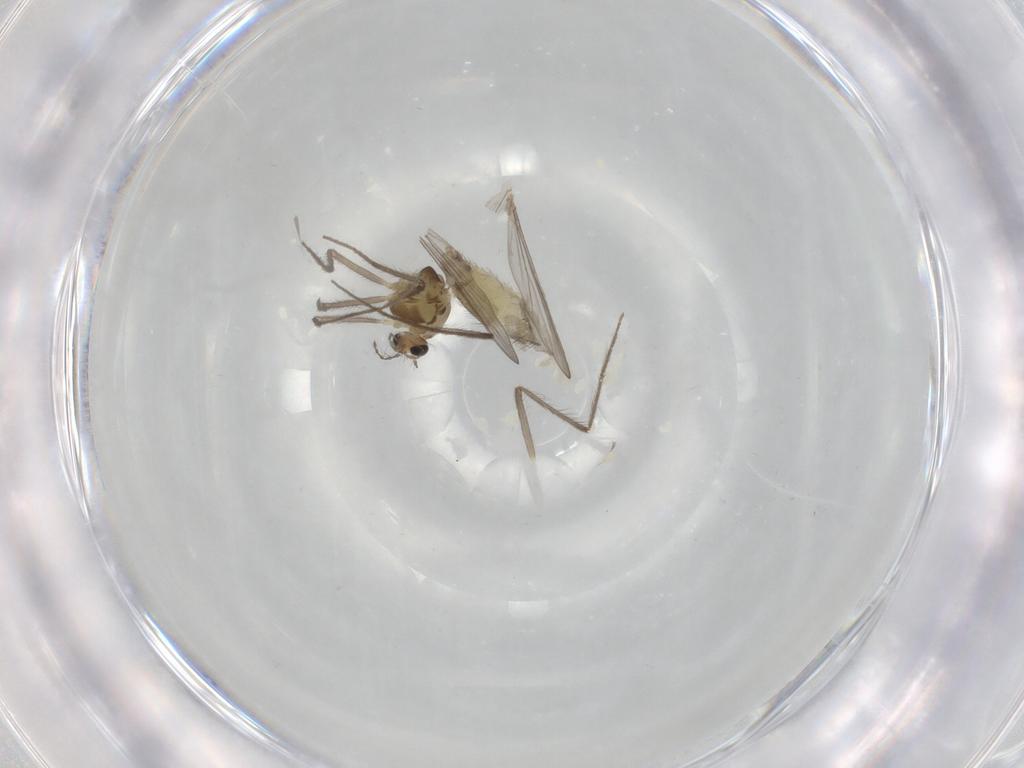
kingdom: Animalia
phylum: Arthropoda
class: Insecta
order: Diptera
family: Chironomidae
